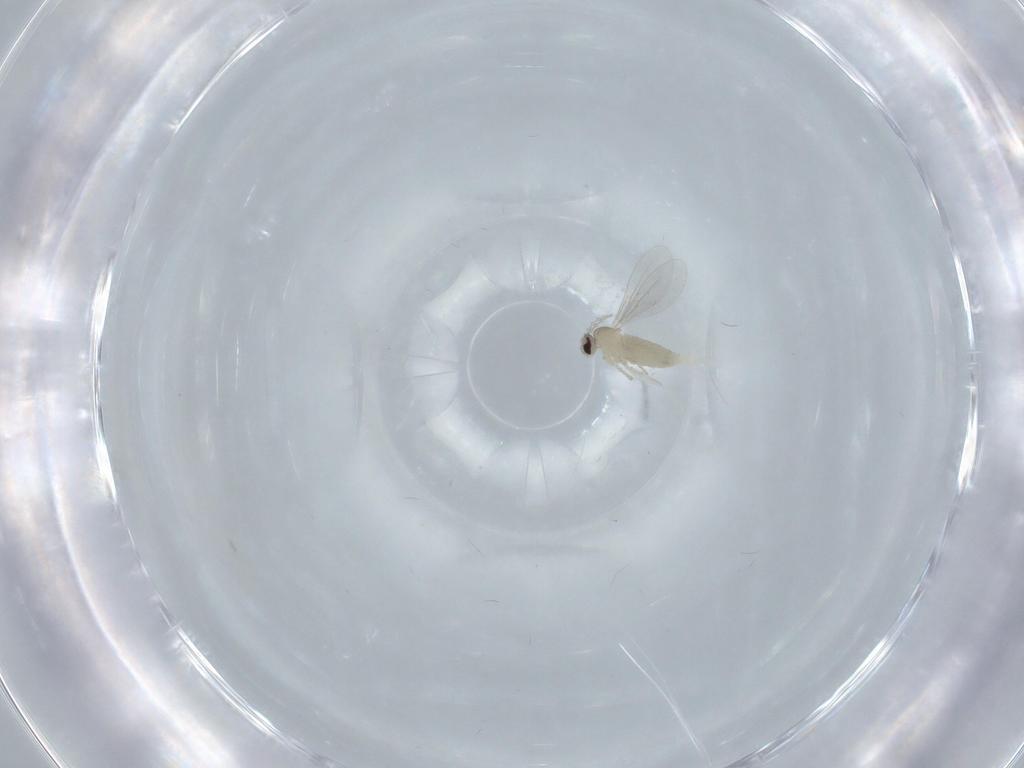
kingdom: Animalia
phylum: Arthropoda
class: Insecta
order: Diptera
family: Cecidomyiidae
